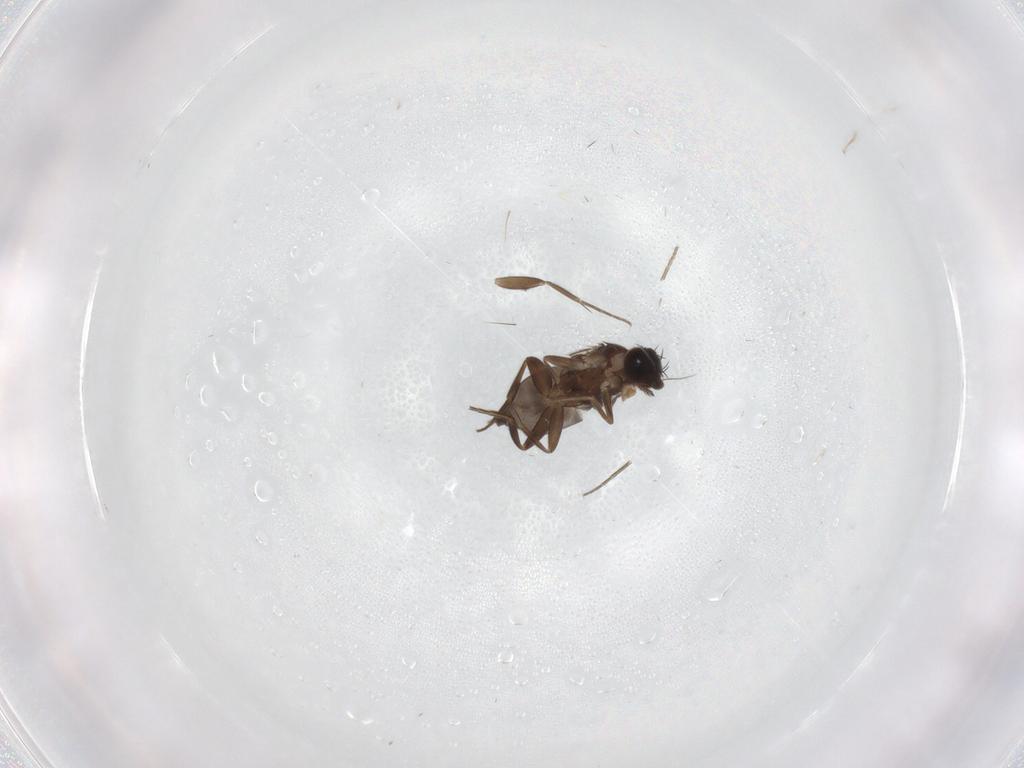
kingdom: Animalia
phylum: Arthropoda
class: Insecta
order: Diptera
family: Phoridae
